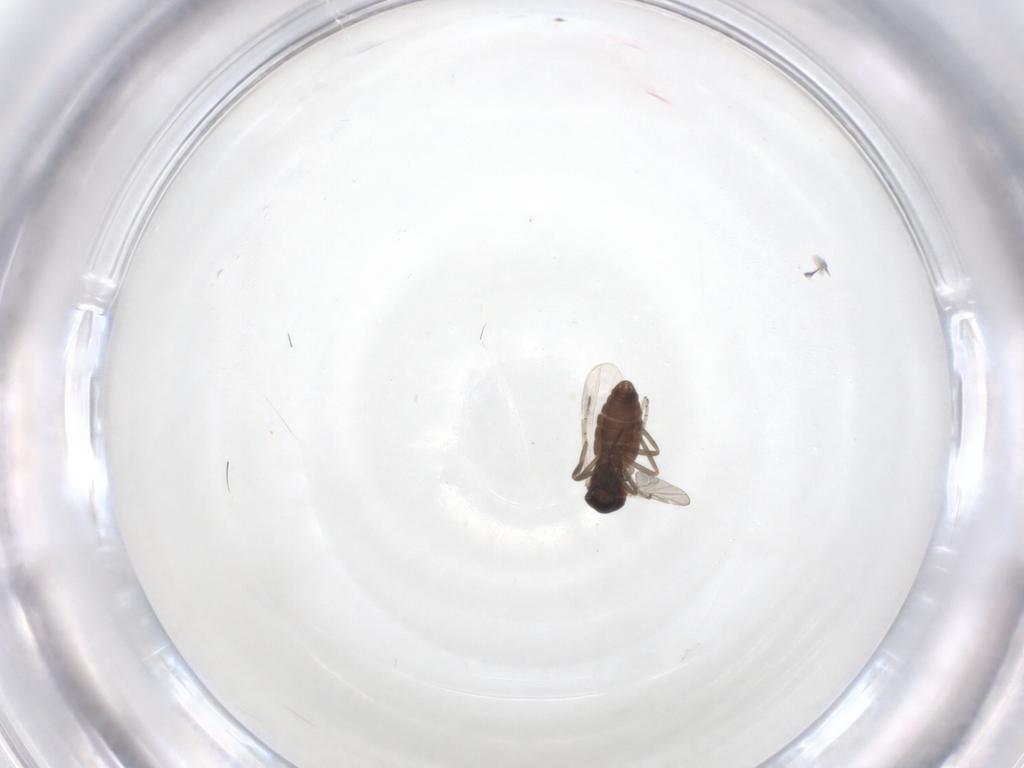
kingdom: Animalia
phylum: Arthropoda
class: Insecta
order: Diptera
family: Ceratopogonidae
